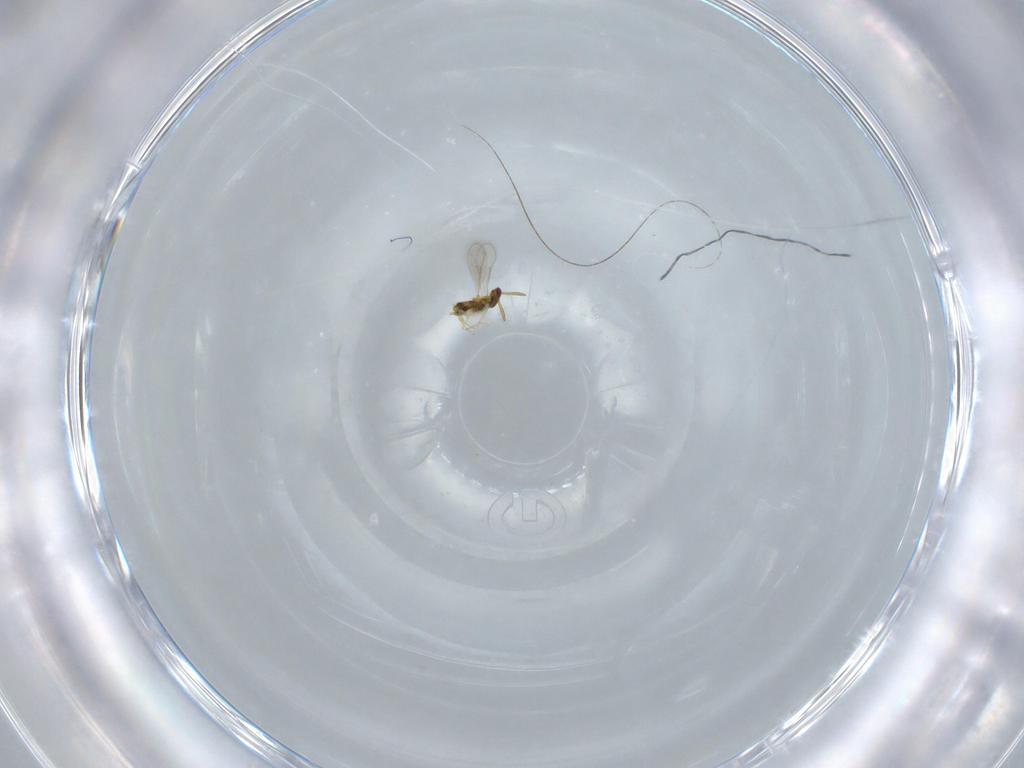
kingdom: Animalia
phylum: Arthropoda
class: Insecta
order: Hymenoptera
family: Aphelinidae
